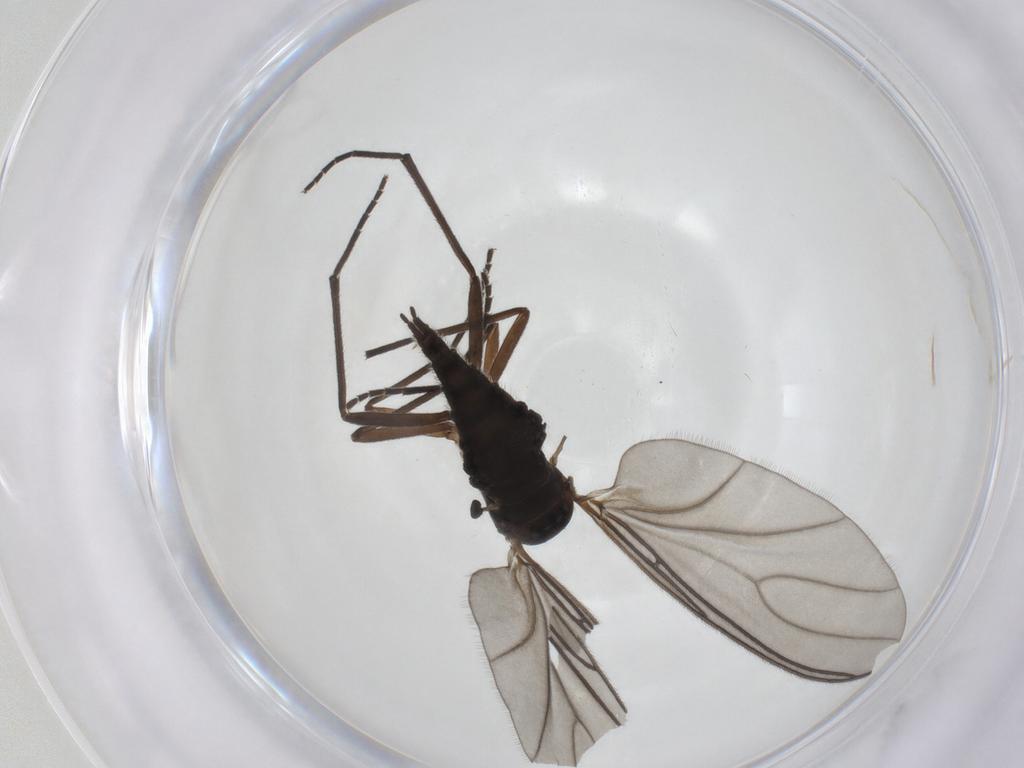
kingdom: Animalia
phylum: Arthropoda
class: Insecta
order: Diptera
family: Sciaridae
